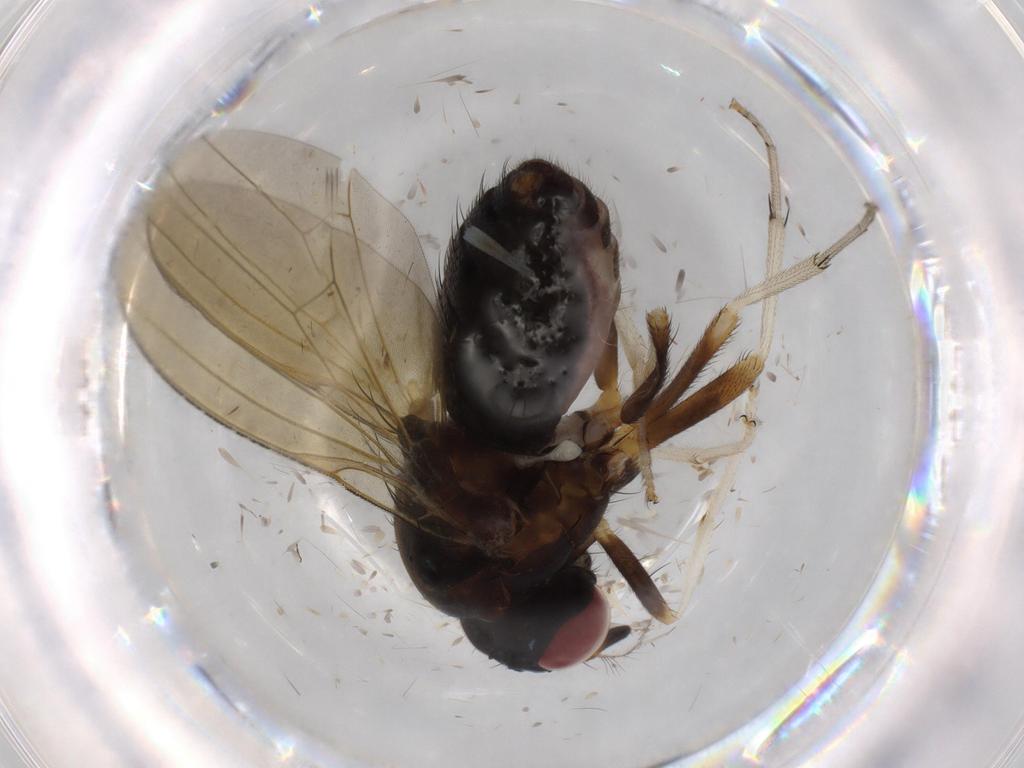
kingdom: Animalia
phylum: Arthropoda
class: Insecta
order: Diptera
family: Sciaridae
